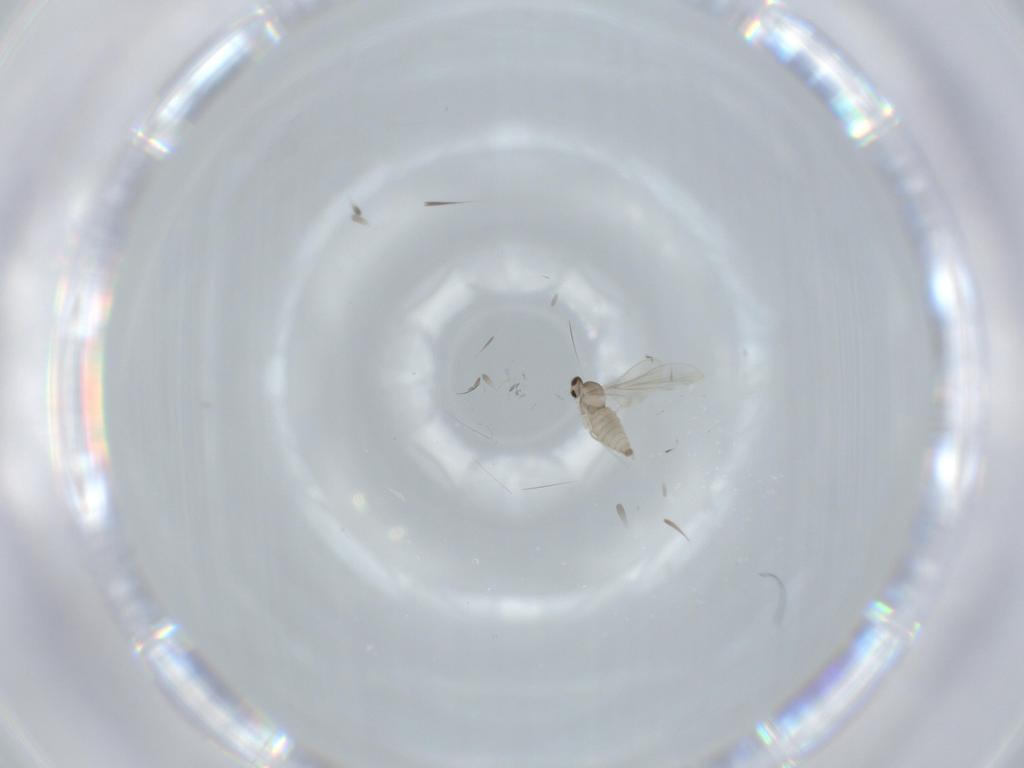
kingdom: Animalia
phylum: Arthropoda
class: Insecta
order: Diptera
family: Cecidomyiidae
